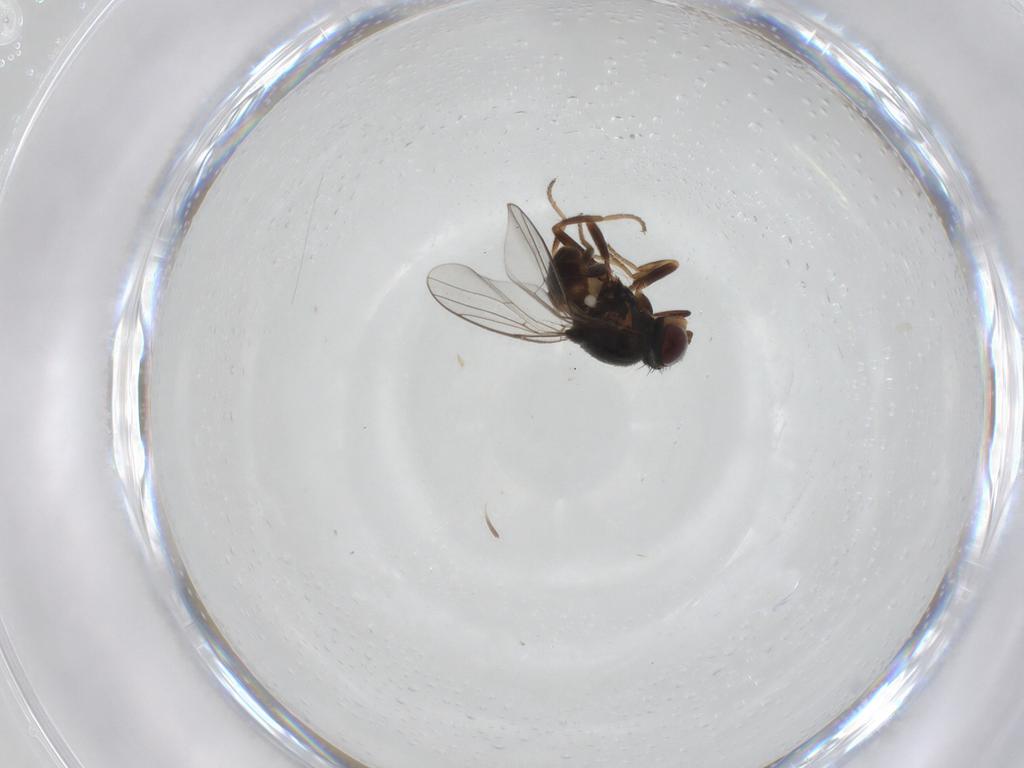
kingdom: Animalia
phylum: Arthropoda
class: Insecta
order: Diptera
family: Chloropidae
